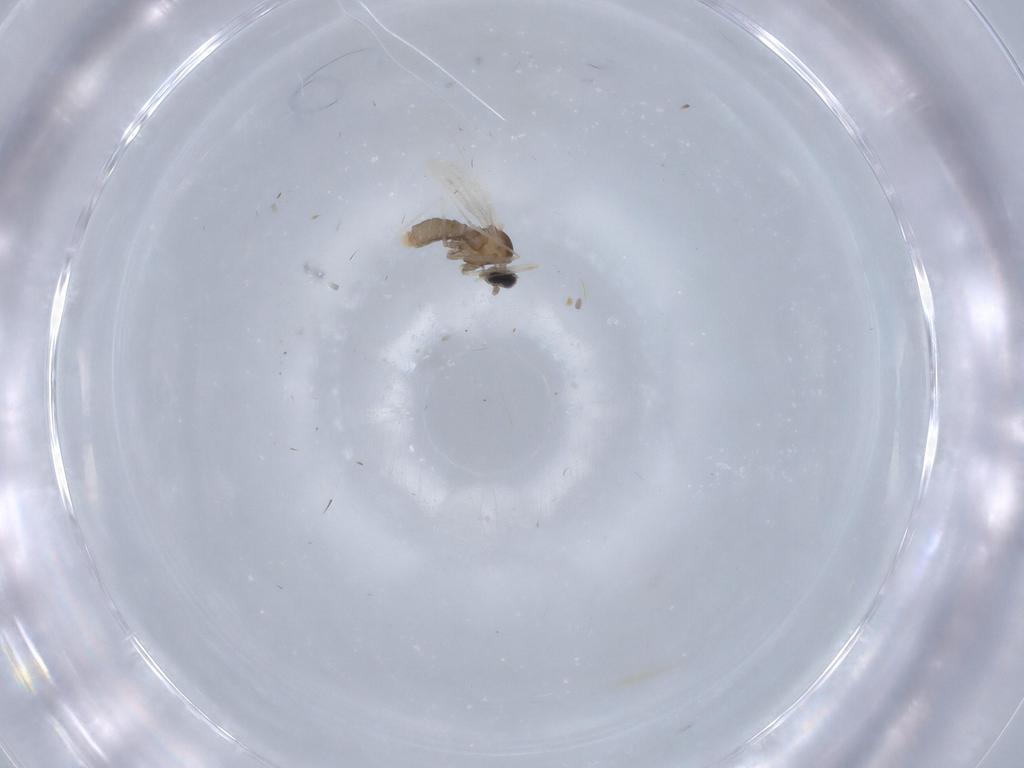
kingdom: Animalia
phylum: Arthropoda
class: Insecta
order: Diptera
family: Cecidomyiidae
